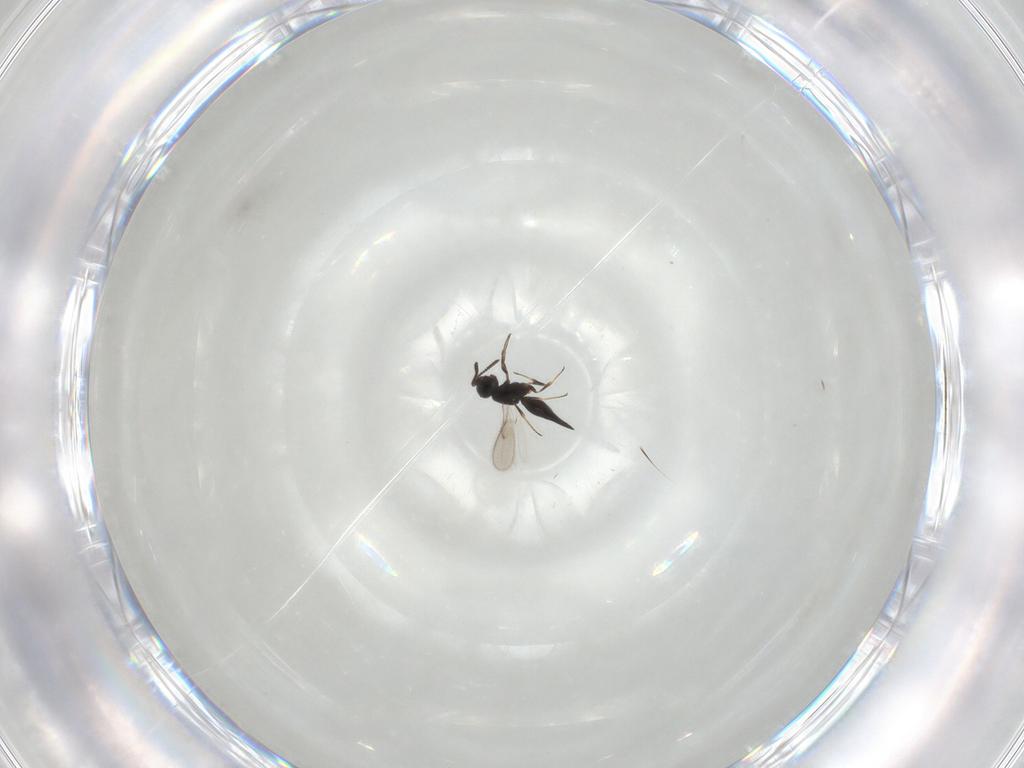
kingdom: Animalia
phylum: Arthropoda
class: Insecta
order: Hymenoptera
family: Scelionidae
